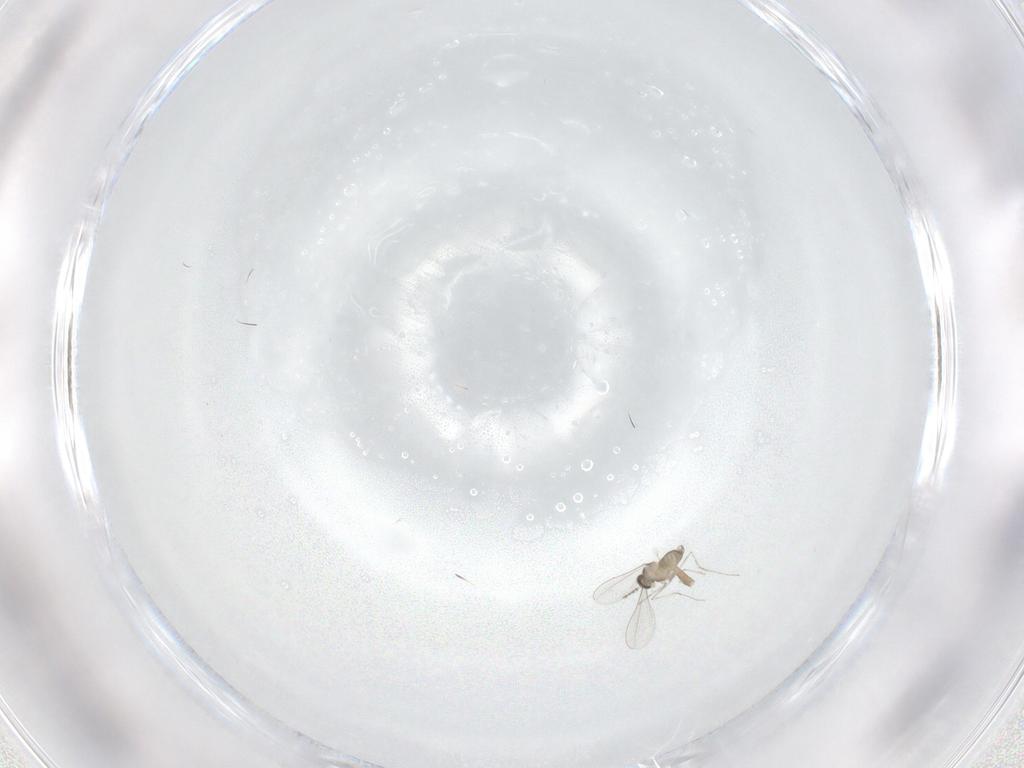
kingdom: Animalia
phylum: Arthropoda
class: Insecta
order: Diptera
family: Cecidomyiidae
